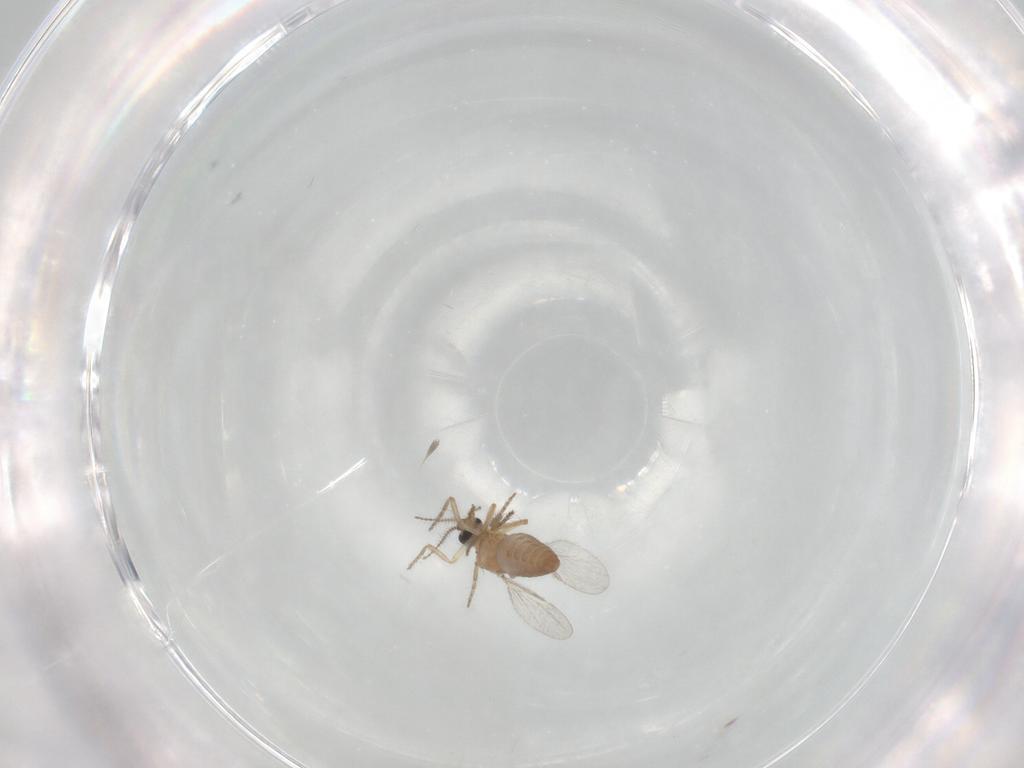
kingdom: Animalia
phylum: Arthropoda
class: Insecta
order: Diptera
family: Ceratopogonidae
